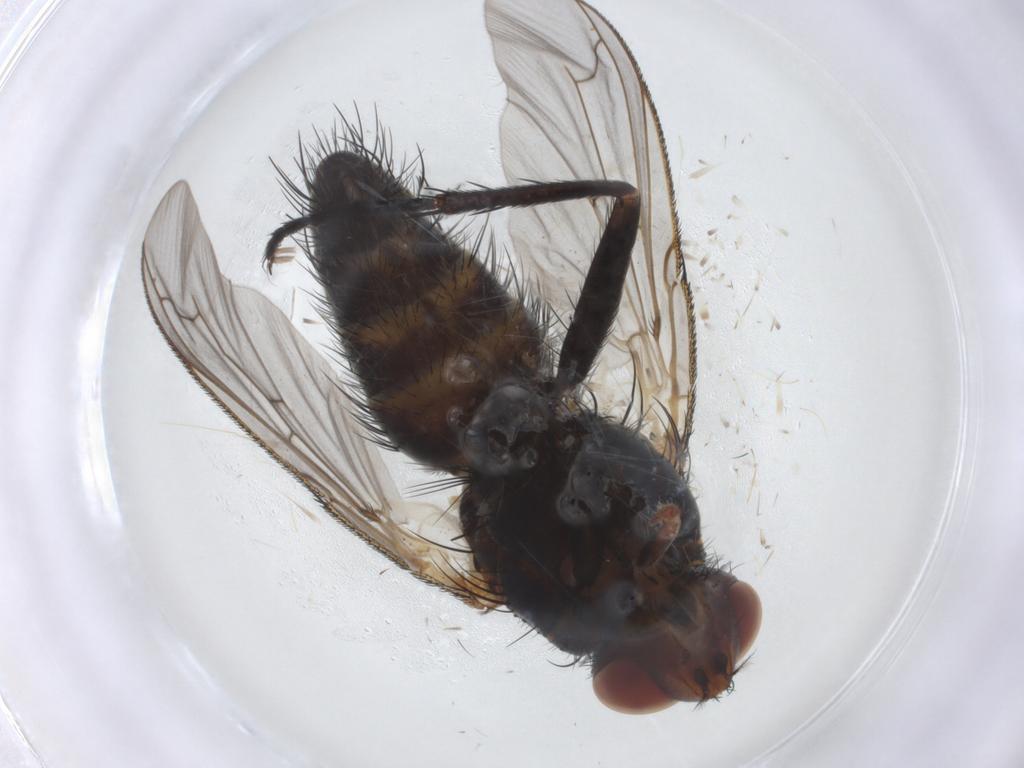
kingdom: Animalia
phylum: Arthropoda
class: Insecta
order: Diptera
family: Tachinidae
